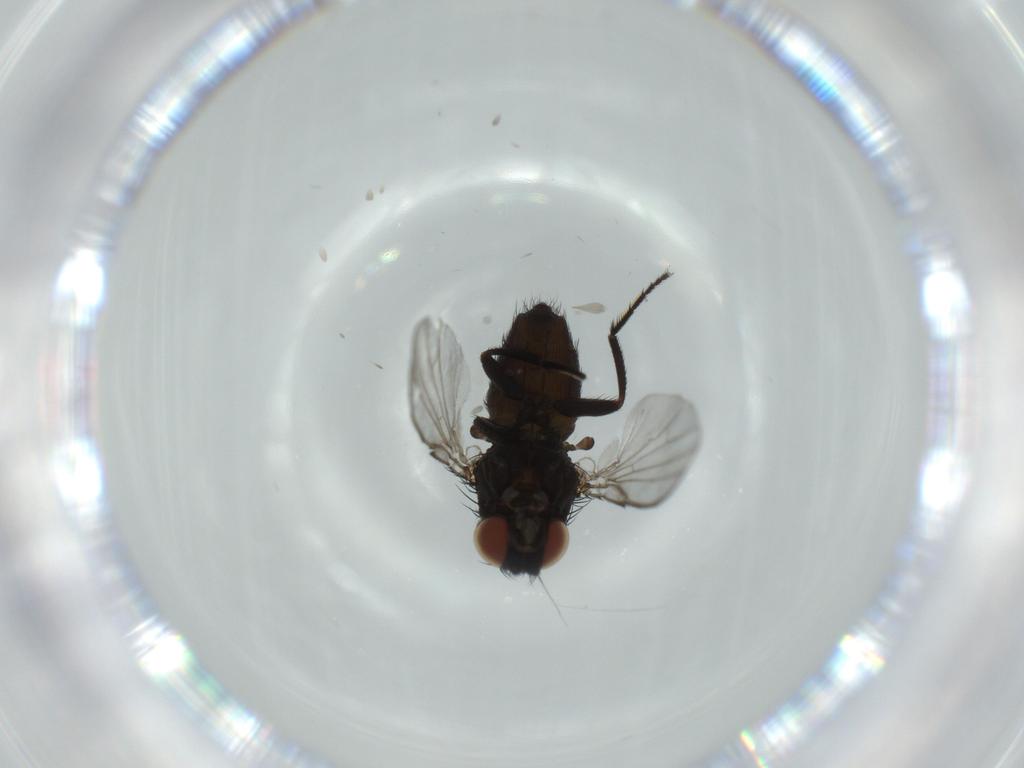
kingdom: Animalia
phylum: Arthropoda
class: Insecta
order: Diptera
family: Milichiidae
